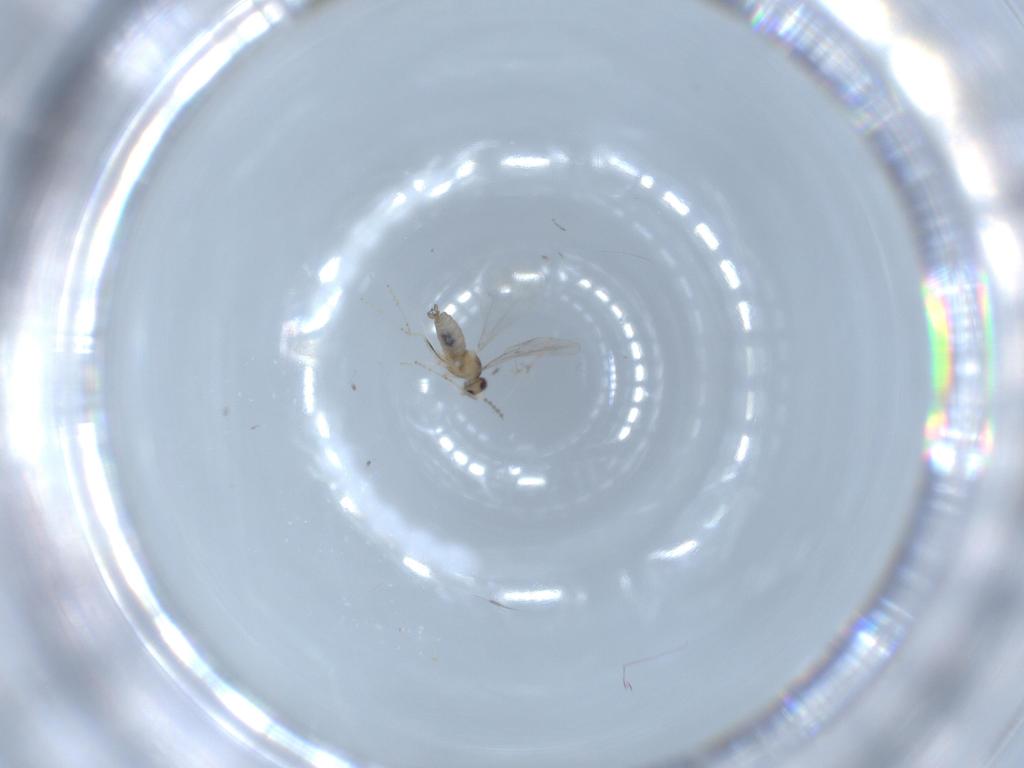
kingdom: Animalia
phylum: Arthropoda
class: Insecta
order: Diptera
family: Cecidomyiidae
